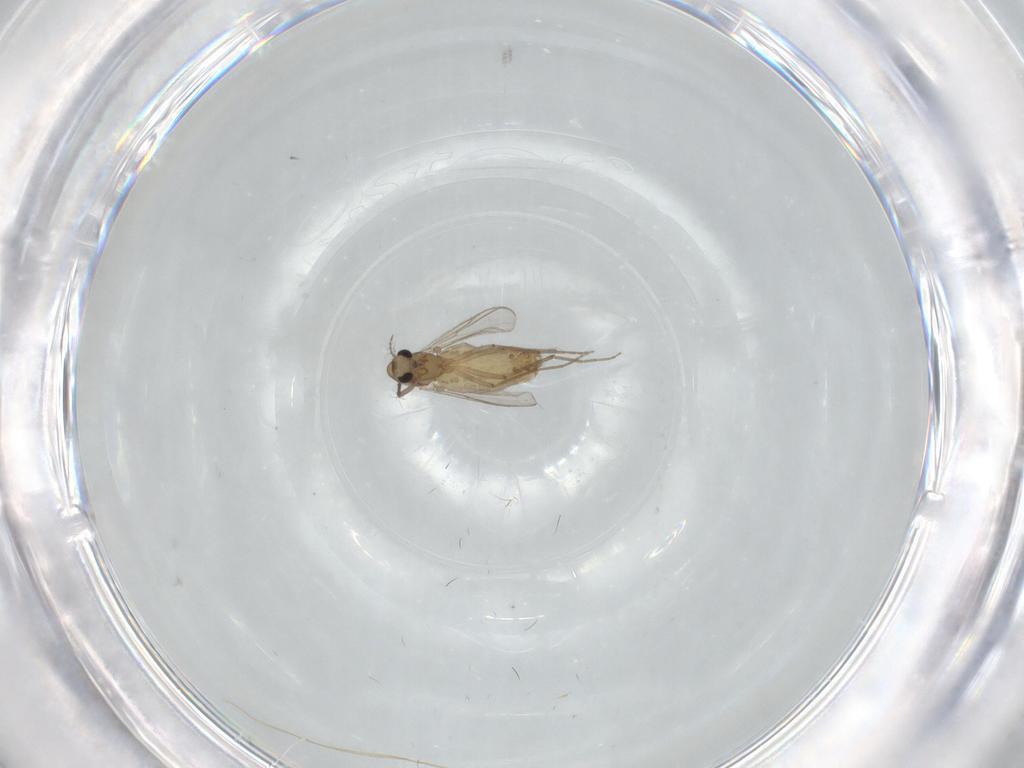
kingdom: Animalia
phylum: Arthropoda
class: Insecta
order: Diptera
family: Chironomidae
